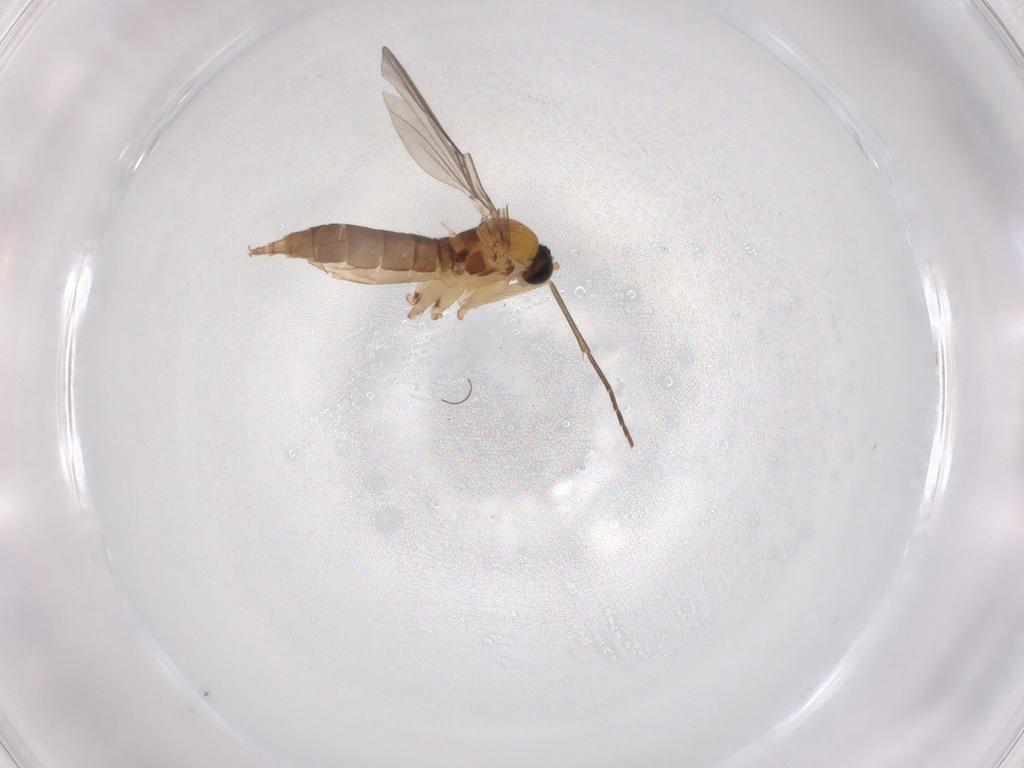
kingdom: Animalia
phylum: Arthropoda
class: Insecta
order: Diptera
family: Sciaridae
